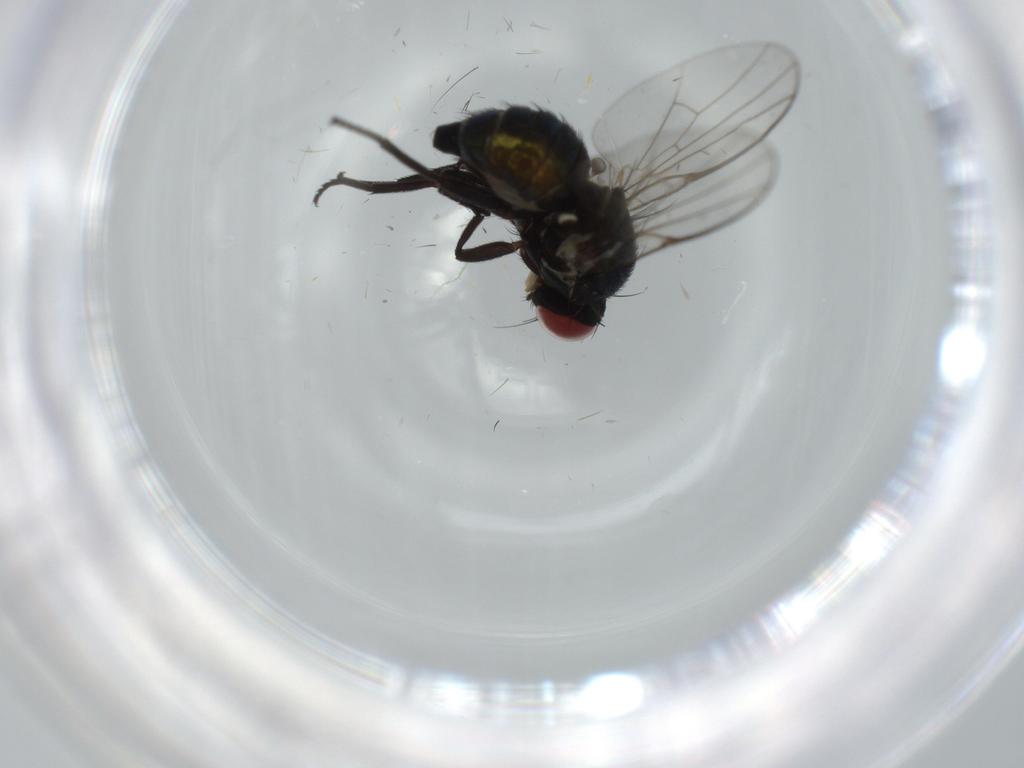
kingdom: Animalia
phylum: Arthropoda
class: Insecta
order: Diptera
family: Agromyzidae
